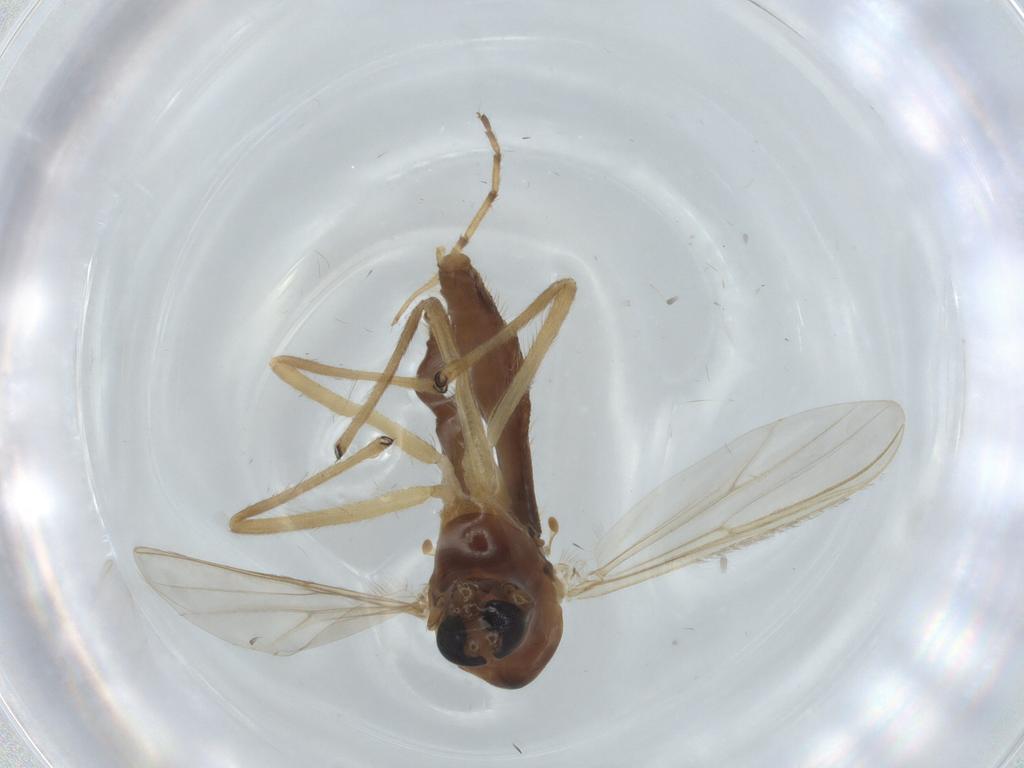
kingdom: Animalia
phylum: Arthropoda
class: Insecta
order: Diptera
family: Chironomidae
